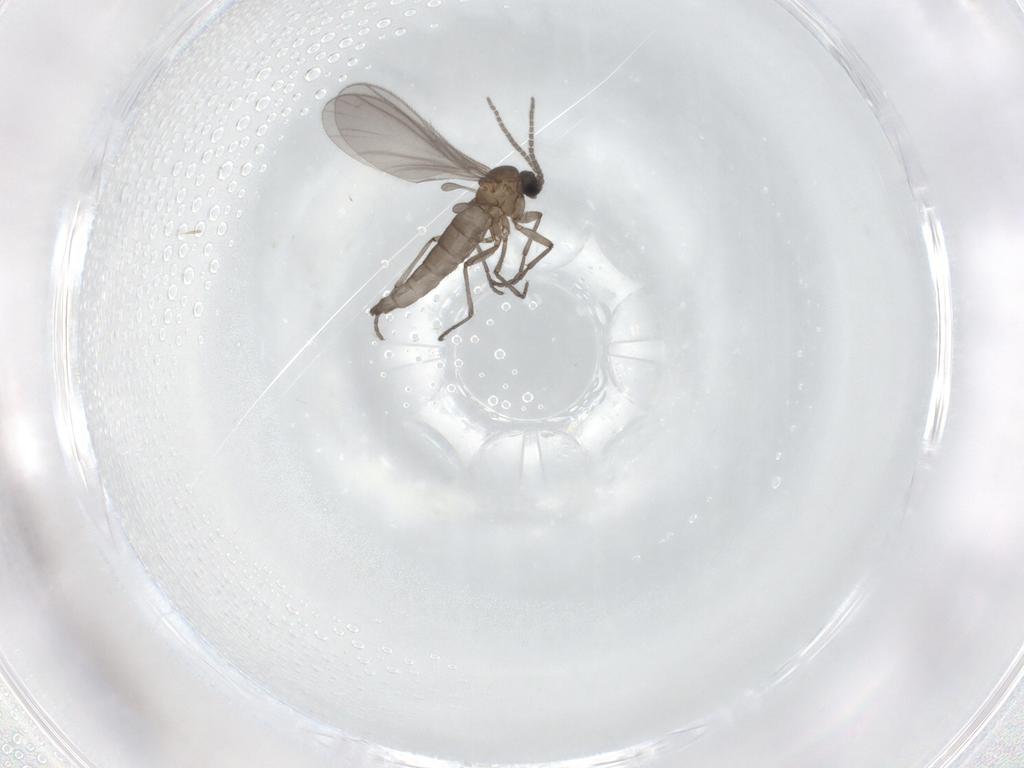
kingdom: Animalia
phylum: Arthropoda
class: Insecta
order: Diptera
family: Sciaridae
